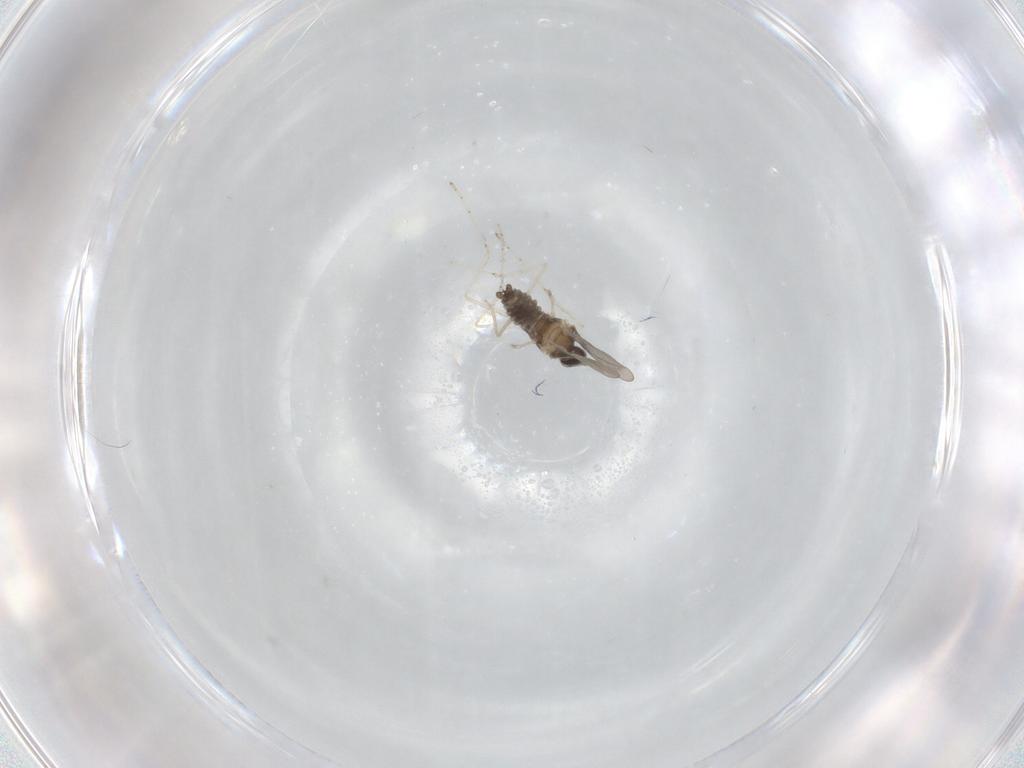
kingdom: Animalia
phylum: Arthropoda
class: Insecta
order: Diptera
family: Cecidomyiidae
